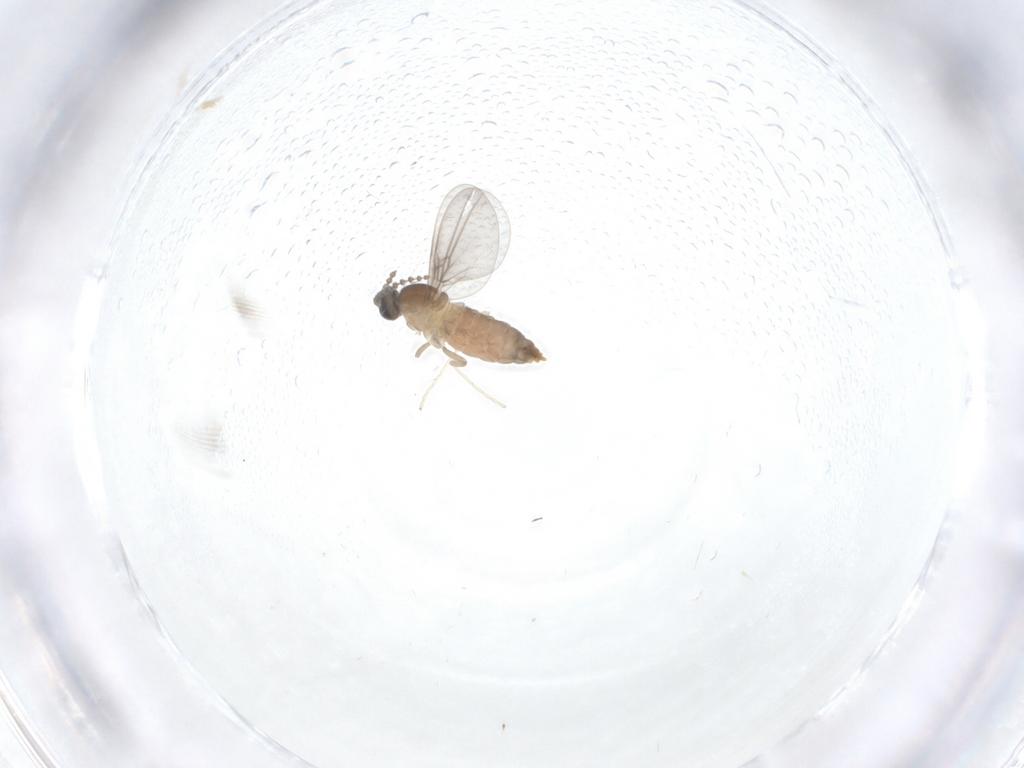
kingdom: Animalia
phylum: Arthropoda
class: Insecta
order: Diptera
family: Cecidomyiidae
